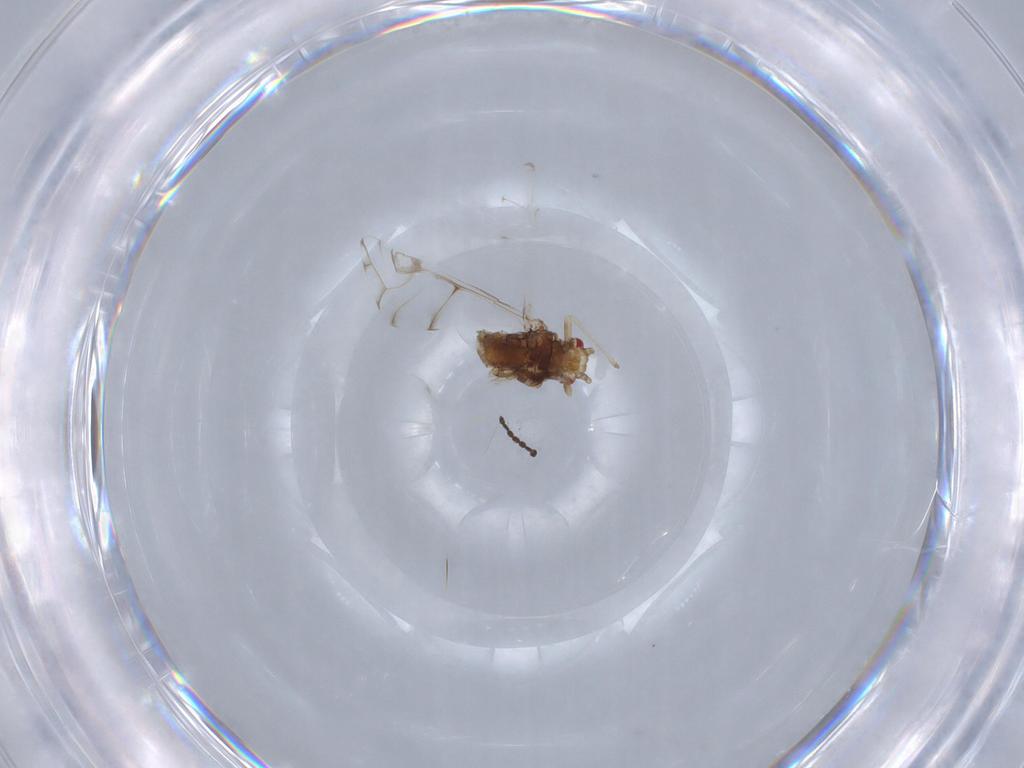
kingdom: Animalia
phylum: Arthropoda
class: Insecta
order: Hemiptera
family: Aphididae
